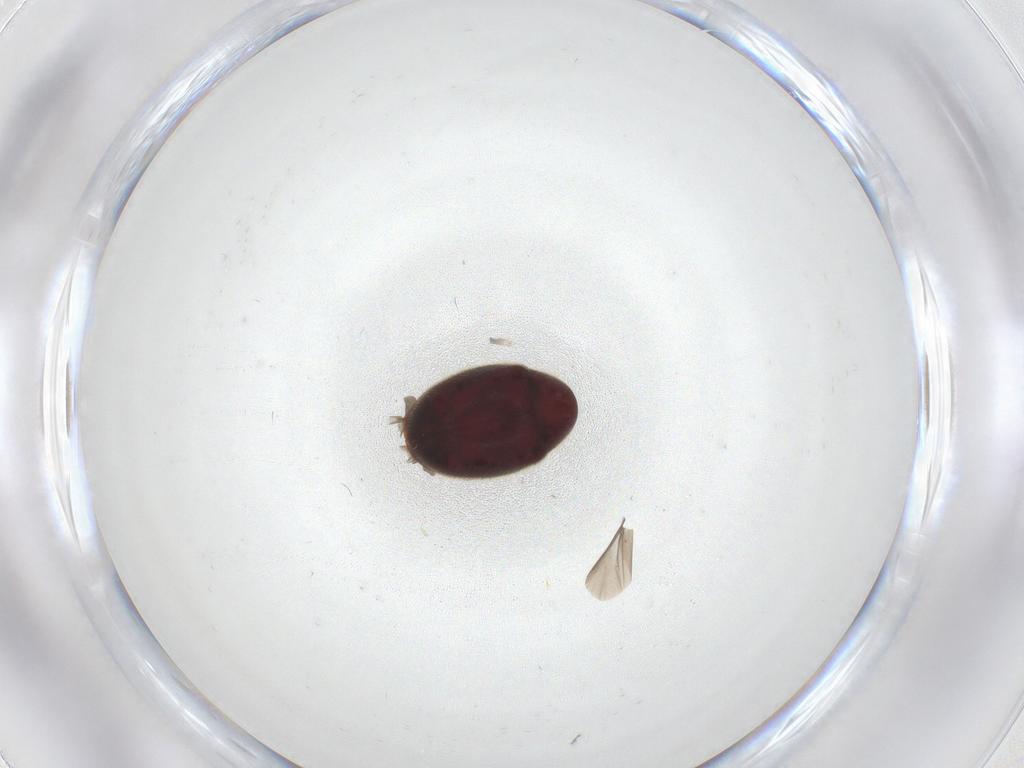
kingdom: Animalia
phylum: Arthropoda
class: Insecta
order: Coleoptera
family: Ptinidae
